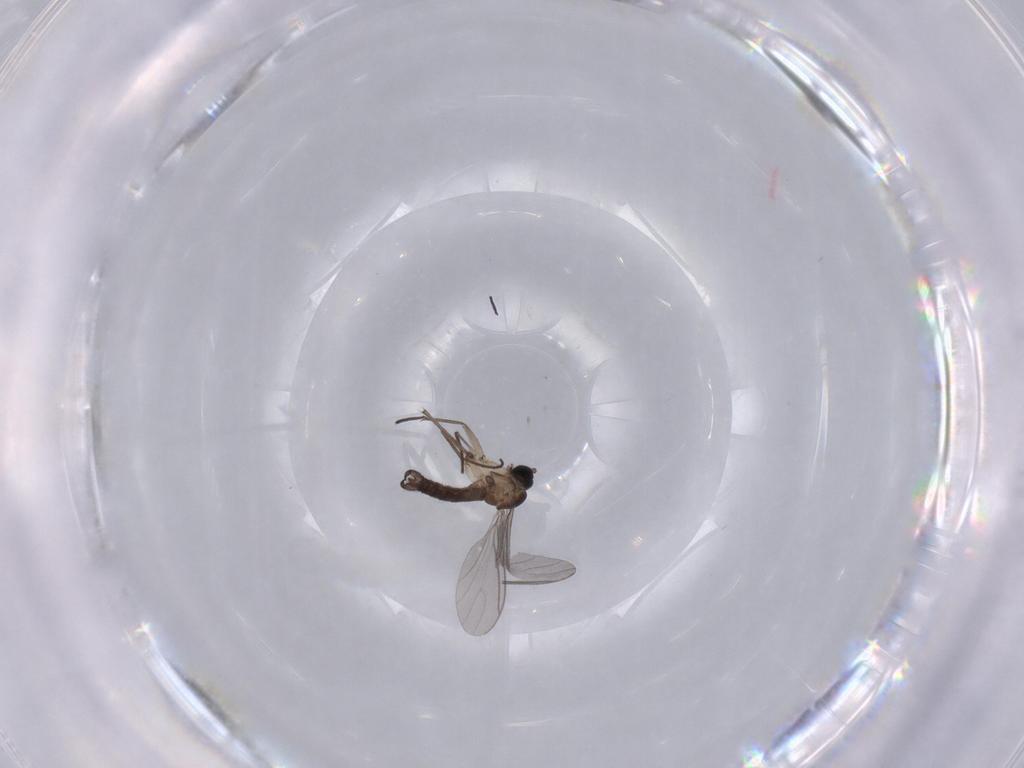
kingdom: Animalia
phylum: Arthropoda
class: Insecta
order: Diptera
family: Sciaridae
